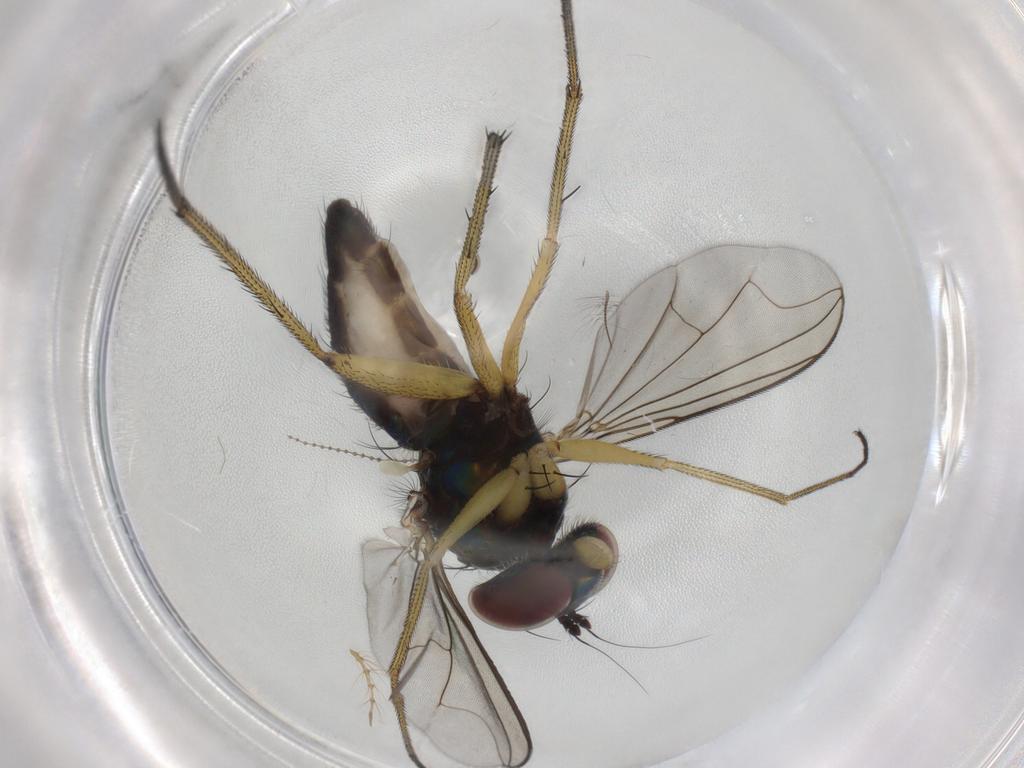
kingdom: Animalia
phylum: Arthropoda
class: Insecta
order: Diptera
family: Dolichopodidae
